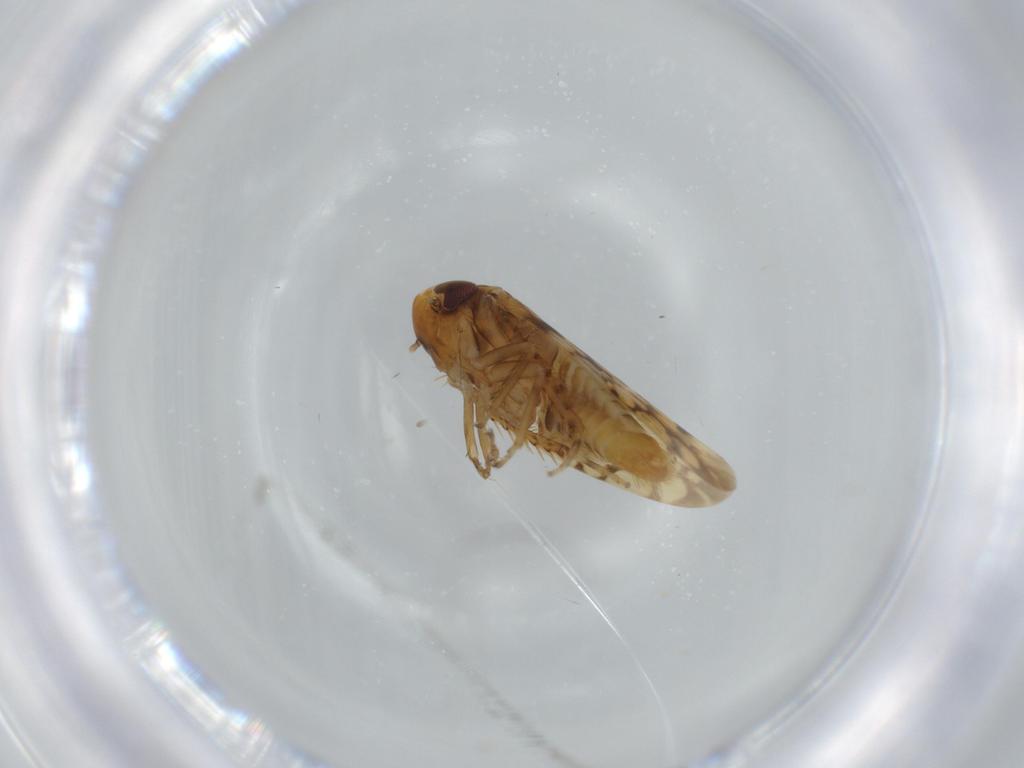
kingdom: Animalia
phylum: Arthropoda
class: Insecta
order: Hemiptera
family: Cicadellidae
